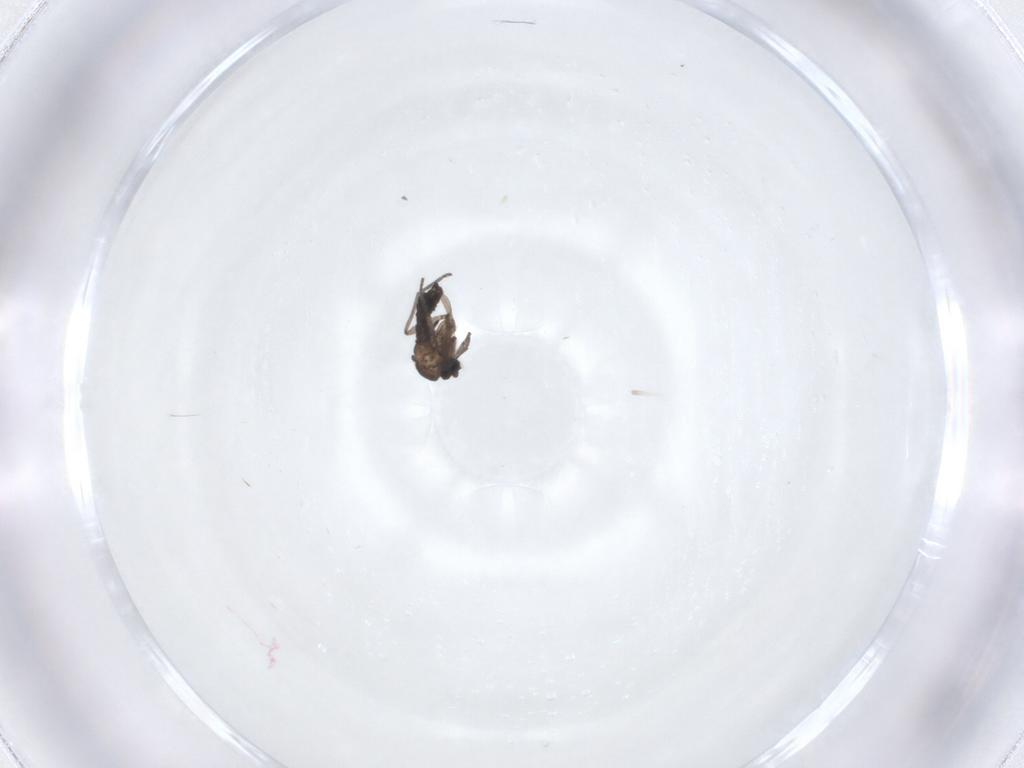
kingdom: Animalia
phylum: Arthropoda
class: Insecta
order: Diptera
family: Sciaridae
